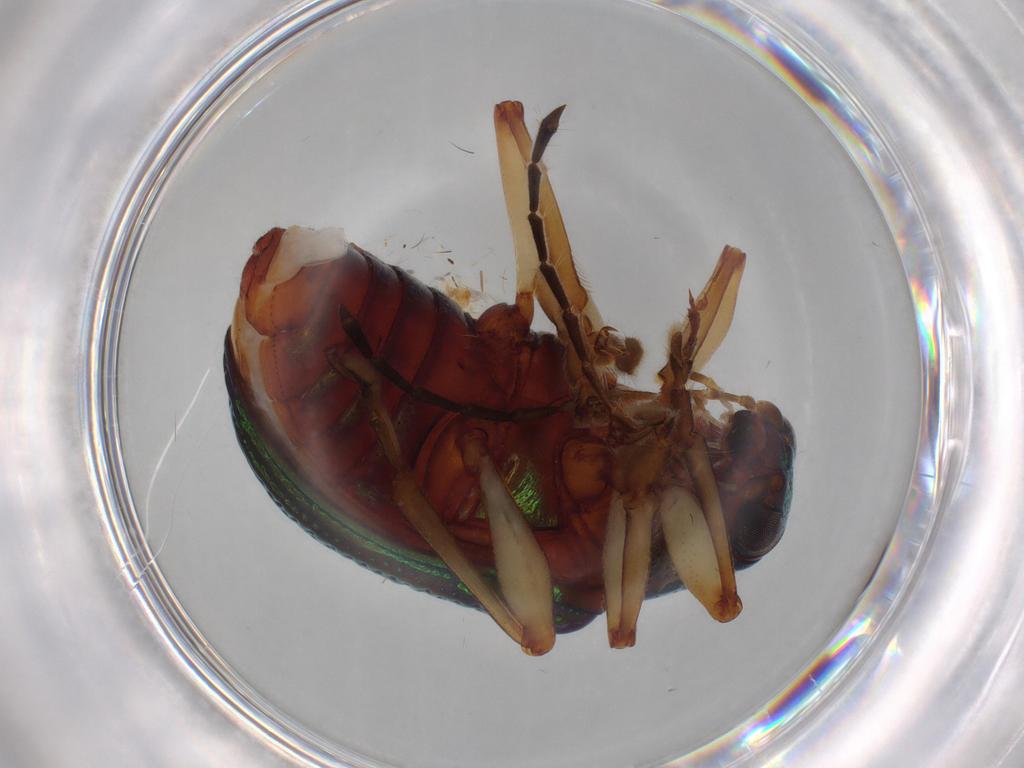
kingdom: Animalia
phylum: Arthropoda
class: Insecta
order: Coleoptera
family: Chrysomelidae
